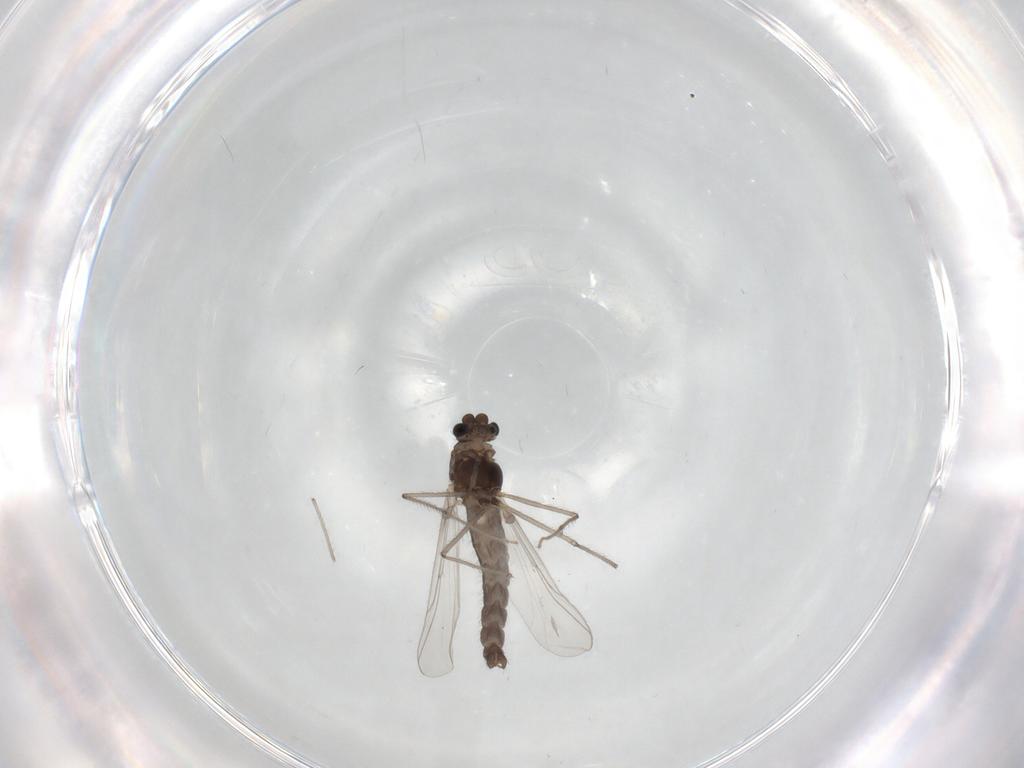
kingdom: Animalia
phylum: Arthropoda
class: Insecta
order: Diptera
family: Chironomidae
